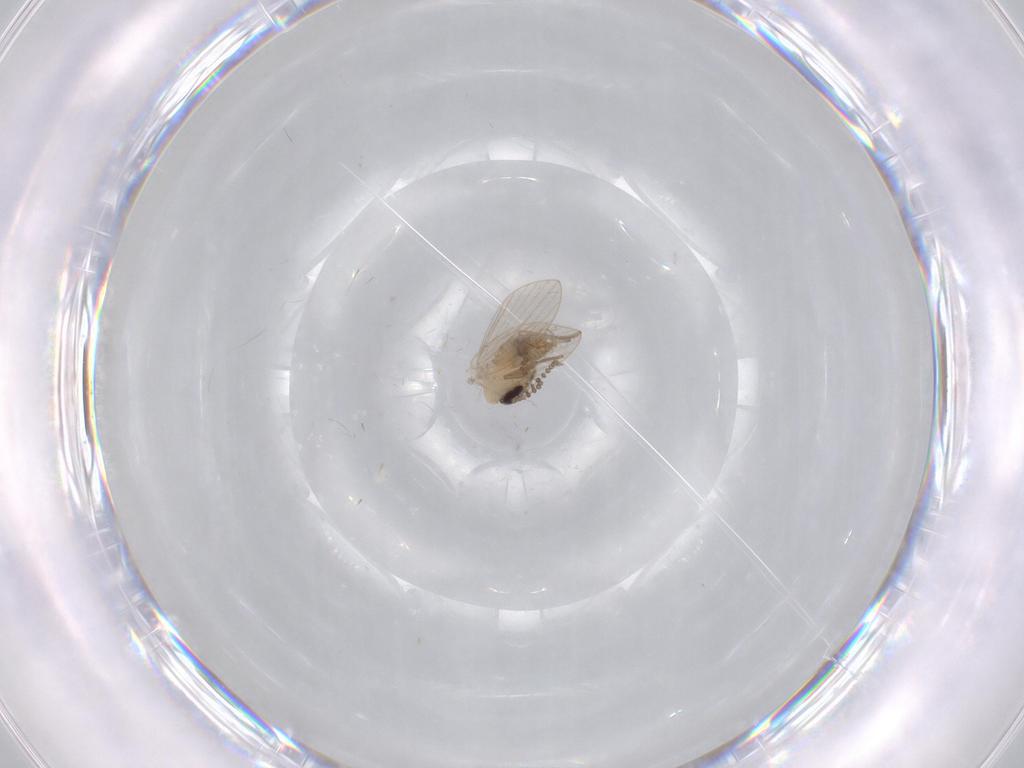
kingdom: Animalia
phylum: Arthropoda
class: Insecta
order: Diptera
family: Psychodidae
